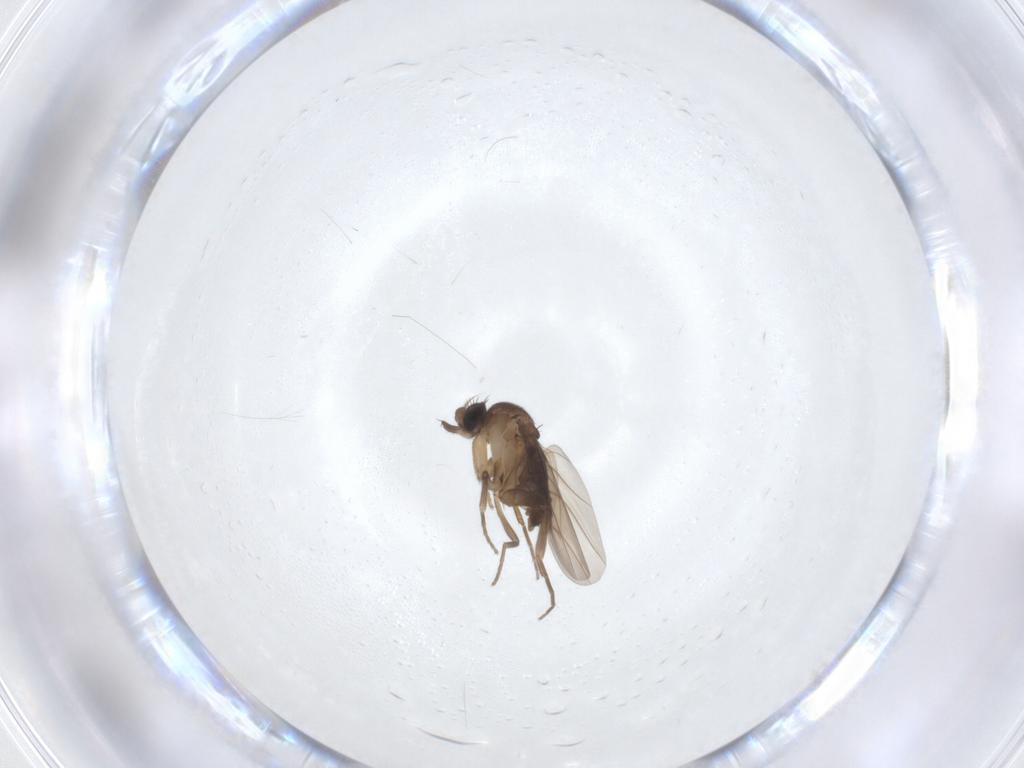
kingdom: Animalia
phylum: Arthropoda
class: Insecta
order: Diptera
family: Phoridae
